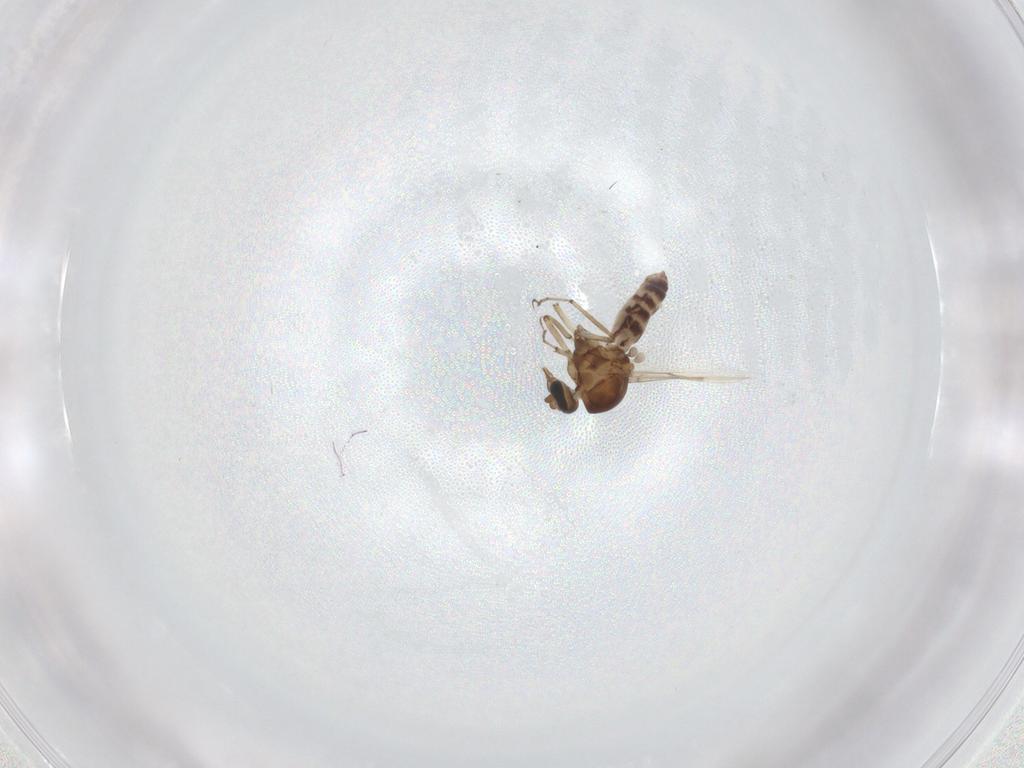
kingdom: Animalia
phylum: Arthropoda
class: Insecta
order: Diptera
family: Ceratopogonidae
